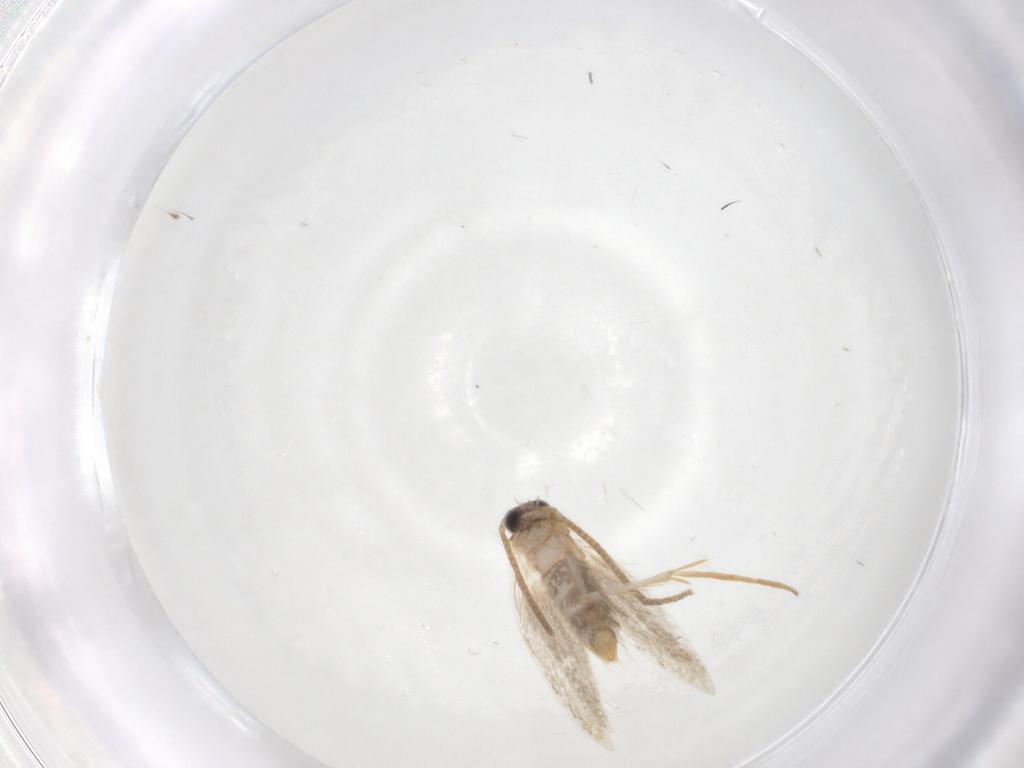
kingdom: Animalia
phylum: Arthropoda
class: Insecta
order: Lepidoptera
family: Tineidae
